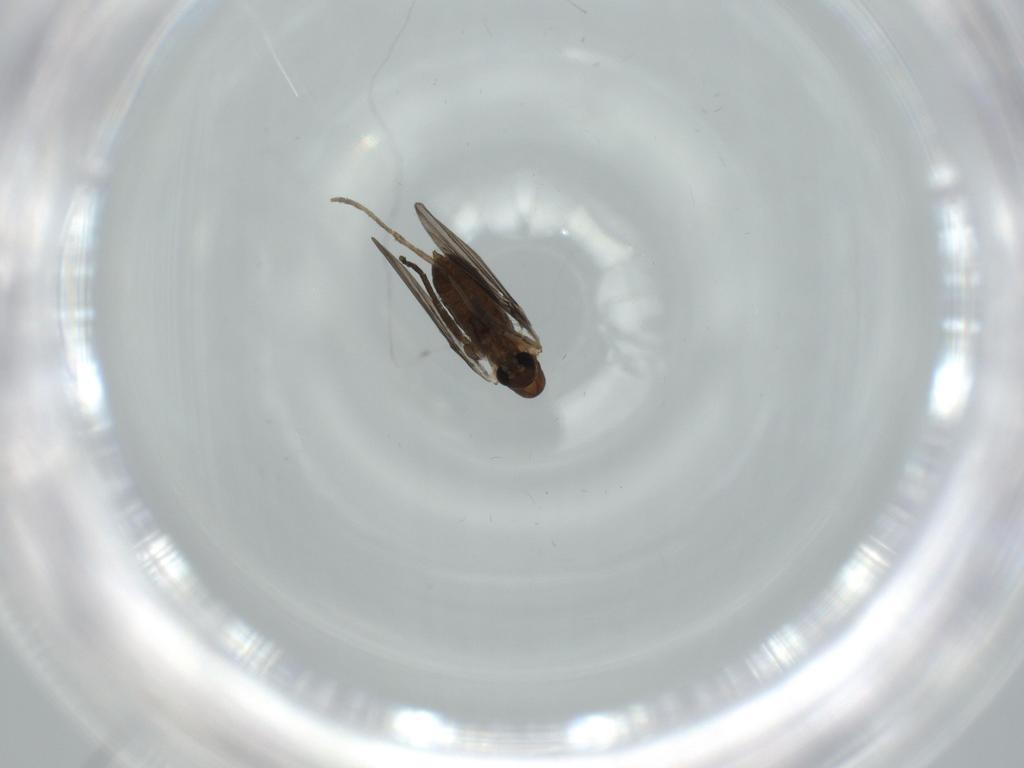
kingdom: Animalia
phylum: Arthropoda
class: Insecta
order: Diptera
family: Psychodidae
